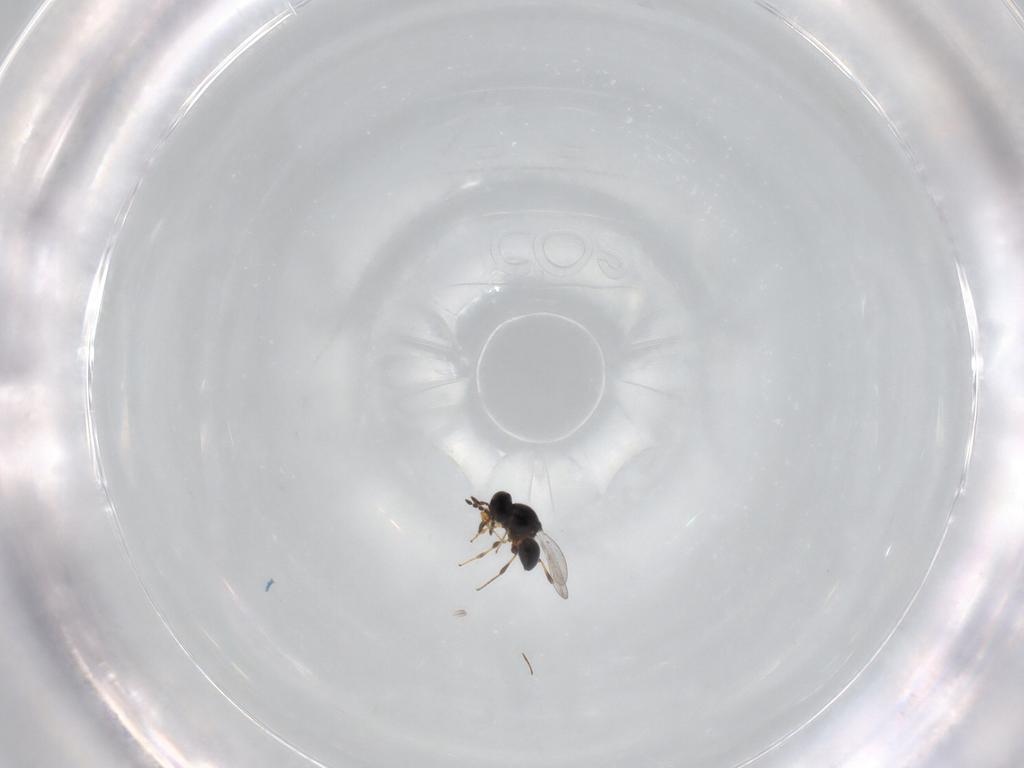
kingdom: Animalia
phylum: Arthropoda
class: Insecta
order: Hymenoptera
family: Platygastridae
